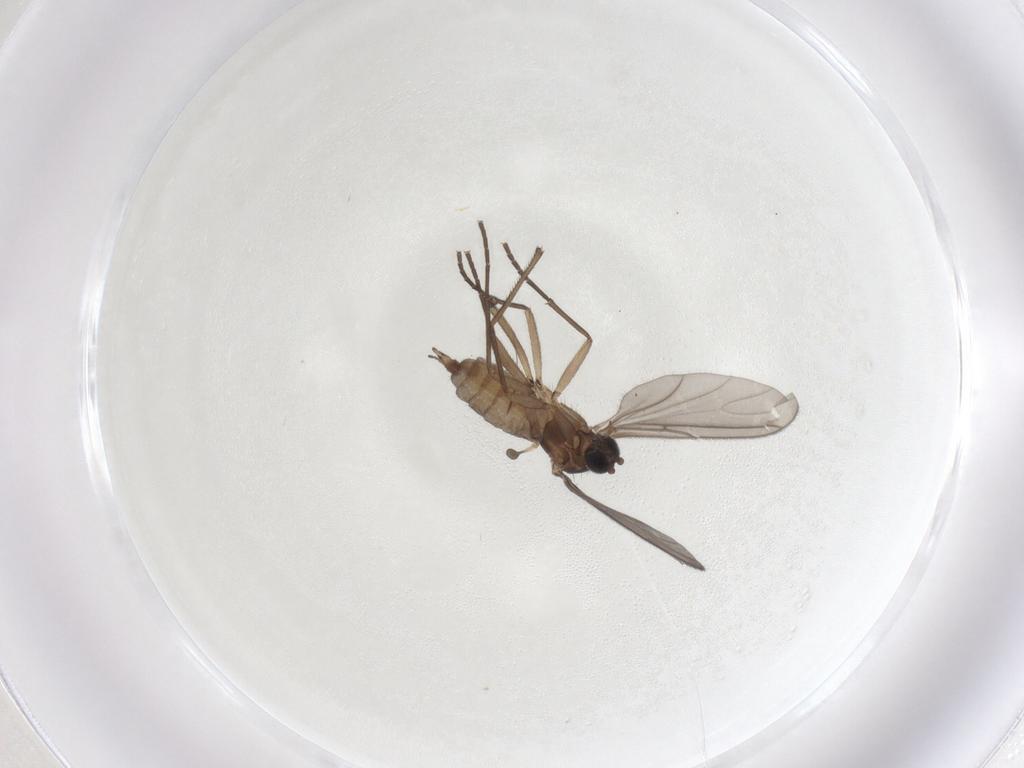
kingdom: Animalia
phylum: Arthropoda
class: Insecta
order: Diptera
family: Sciaridae
